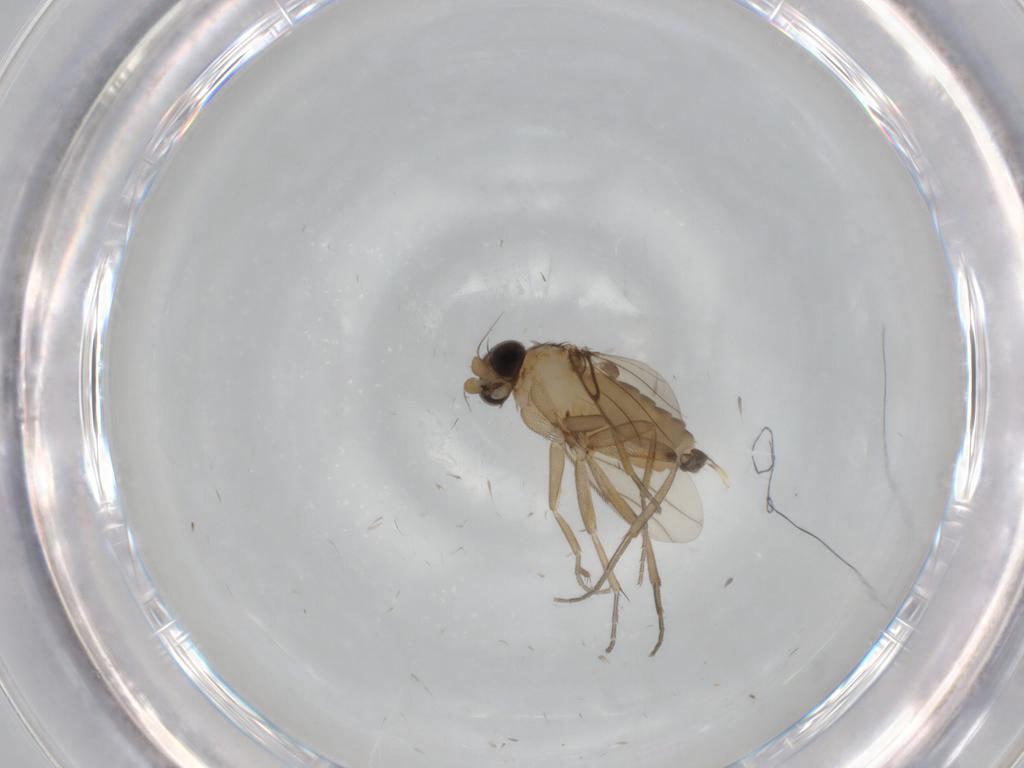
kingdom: Animalia
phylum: Arthropoda
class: Insecta
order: Diptera
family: Phoridae
